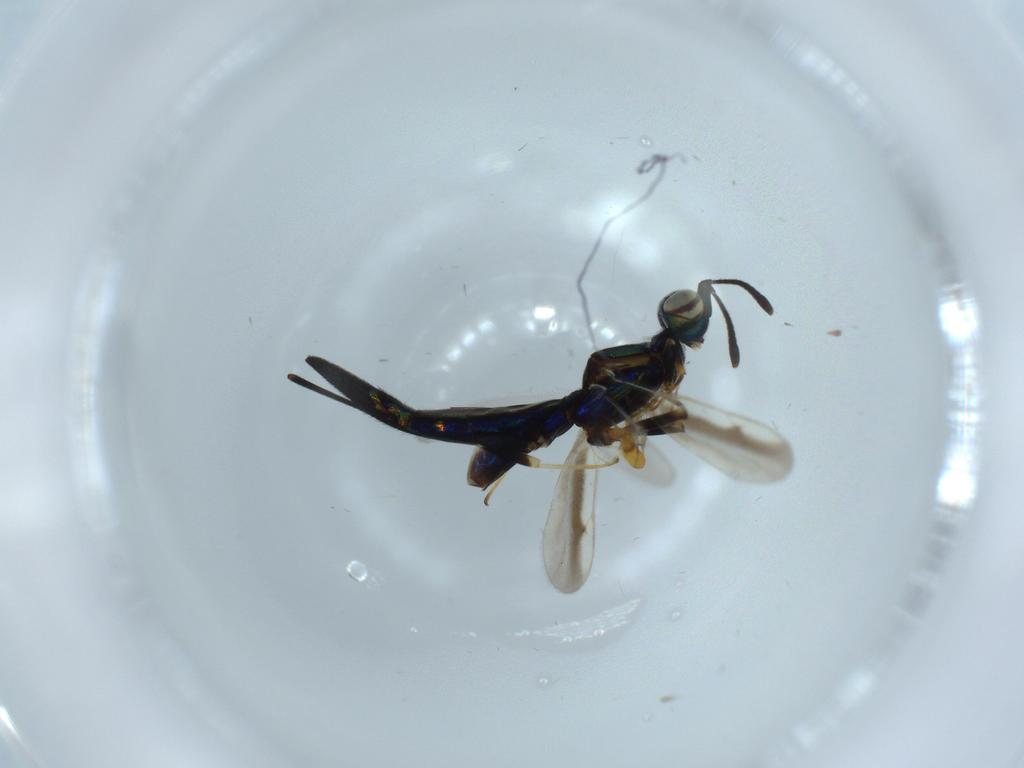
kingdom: Animalia
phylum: Arthropoda
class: Insecta
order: Hymenoptera
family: Trichogrammatidae
